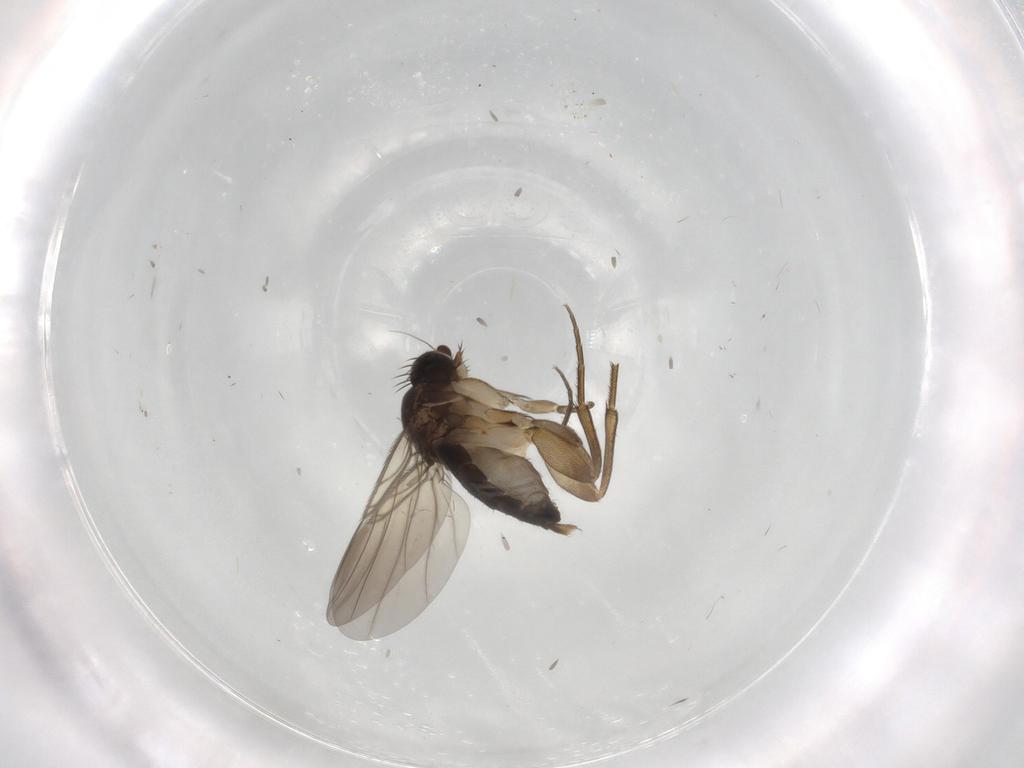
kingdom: Animalia
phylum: Arthropoda
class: Insecta
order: Diptera
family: Phoridae
